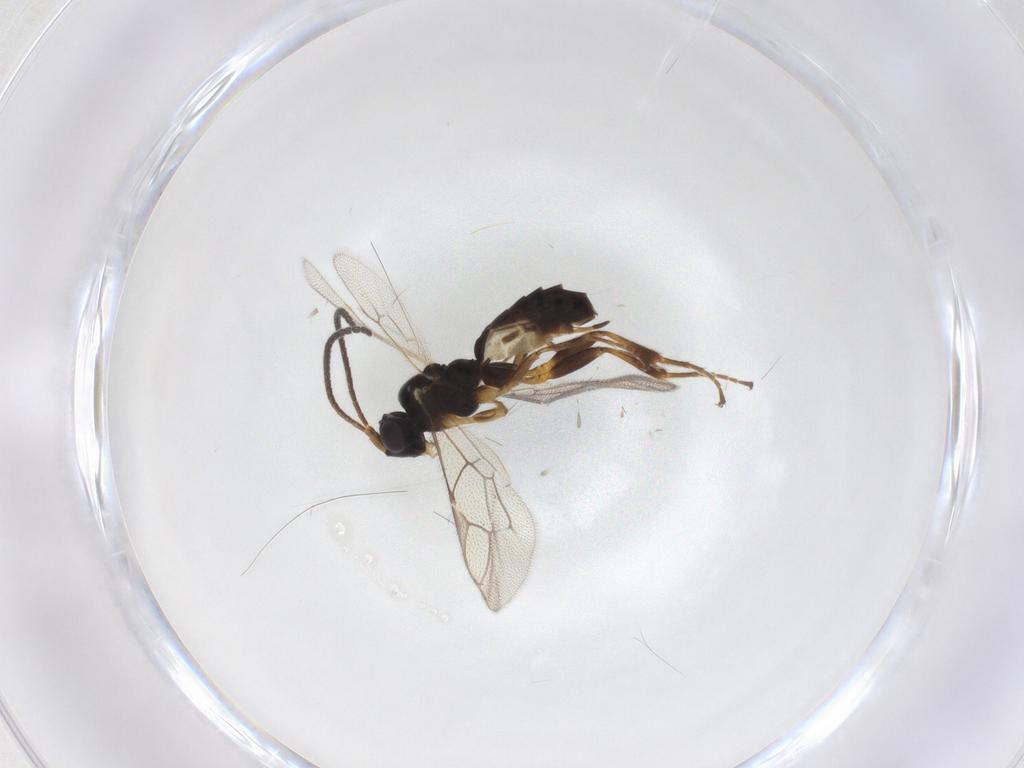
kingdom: Animalia
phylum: Arthropoda
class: Insecta
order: Hymenoptera
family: Ichneumonidae
